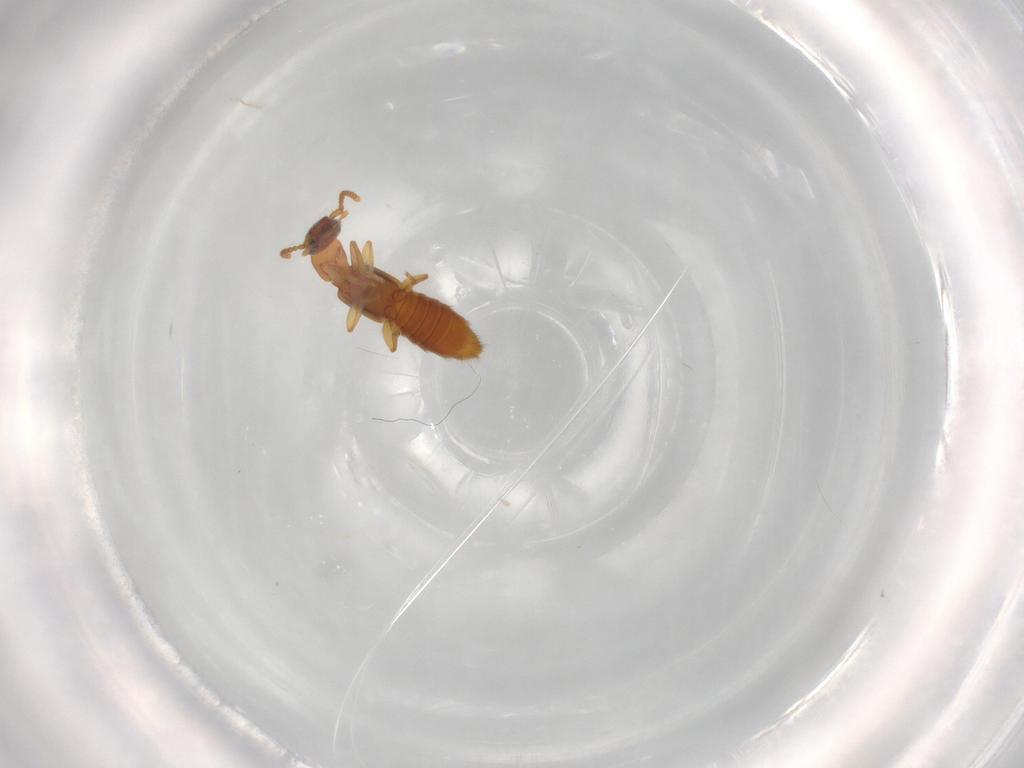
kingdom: Animalia
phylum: Arthropoda
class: Insecta
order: Coleoptera
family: Staphylinidae
